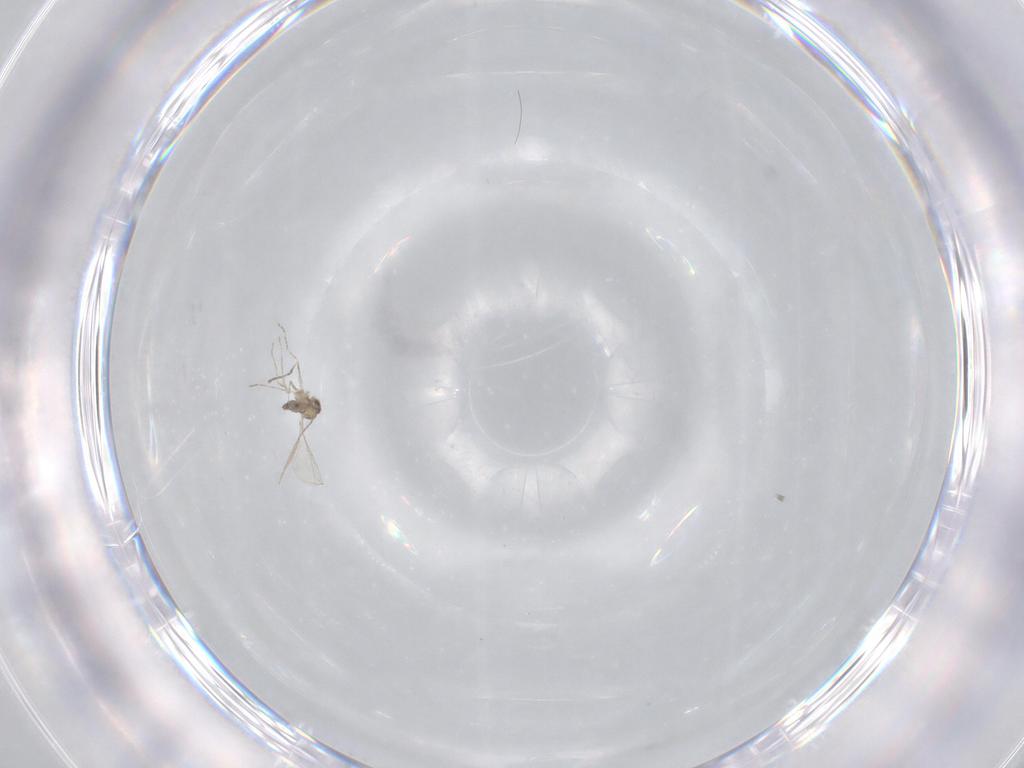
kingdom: Animalia
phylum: Arthropoda
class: Insecta
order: Diptera
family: Cecidomyiidae
